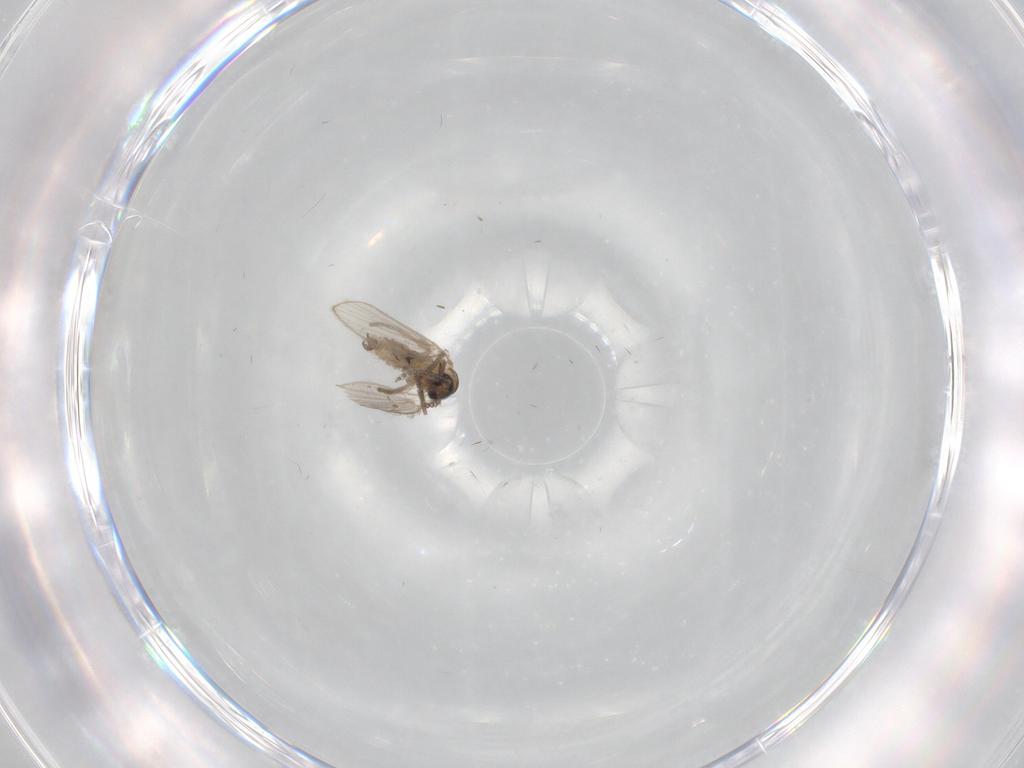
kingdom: Animalia
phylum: Arthropoda
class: Insecta
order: Diptera
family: Psychodidae
